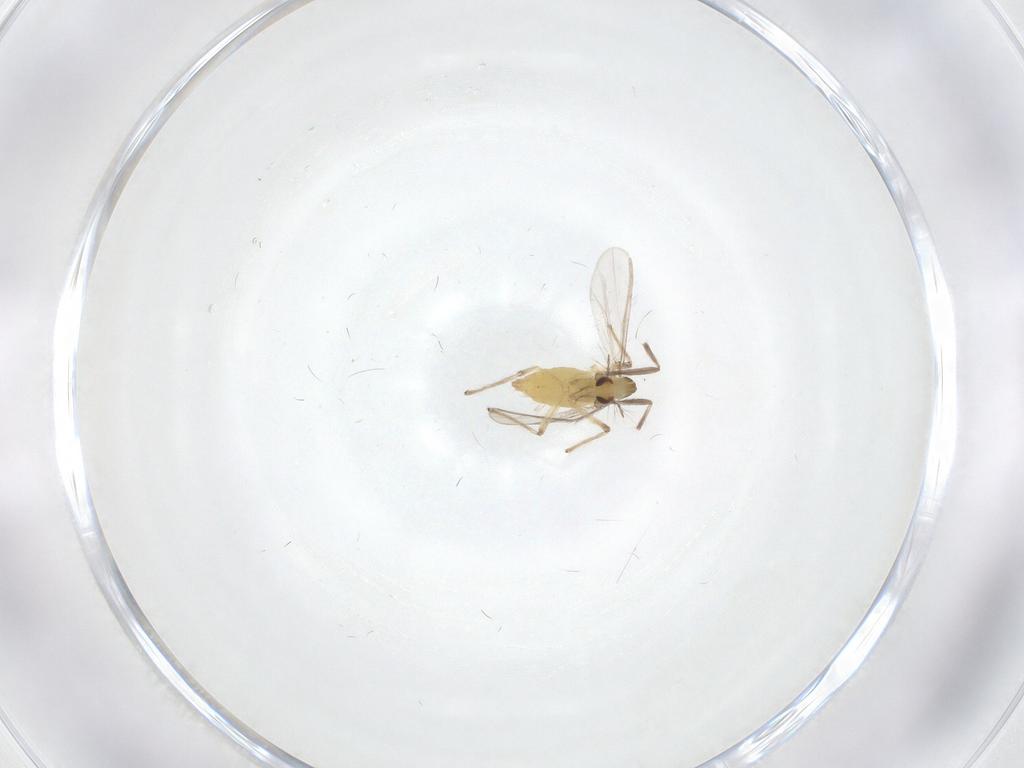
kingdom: Animalia
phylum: Arthropoda
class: Insecta
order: Diptera
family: Chironomidae
